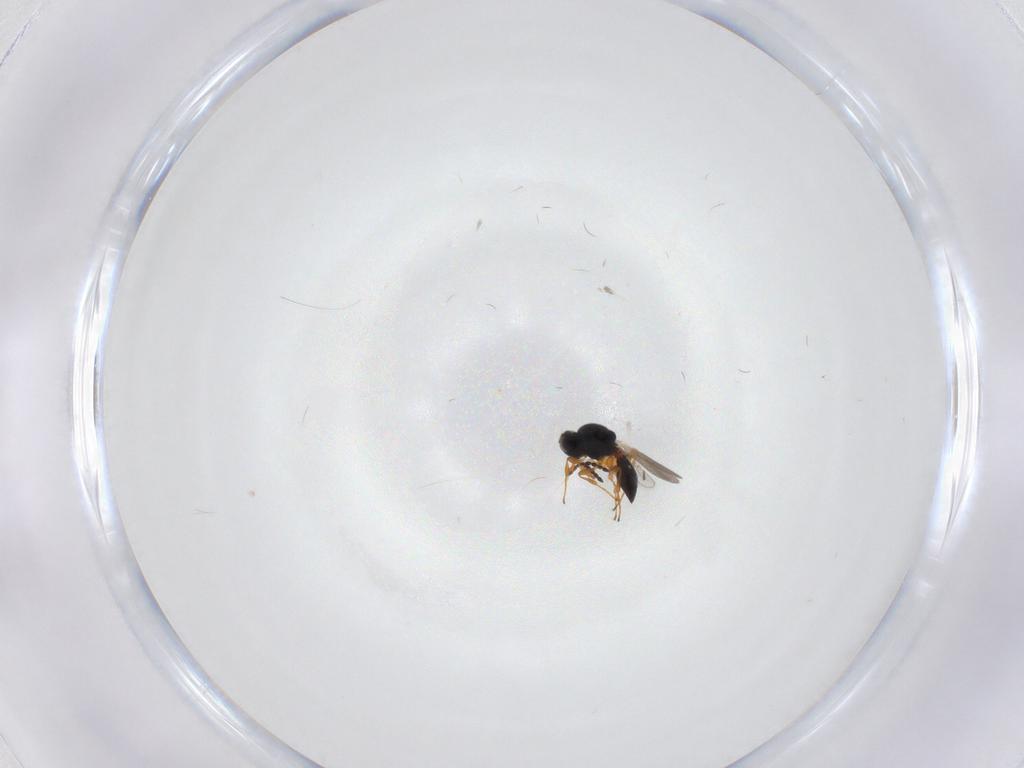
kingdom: Animalia
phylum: Arthropoda
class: Insecta
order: Hymenoptera
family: Platygastridae
